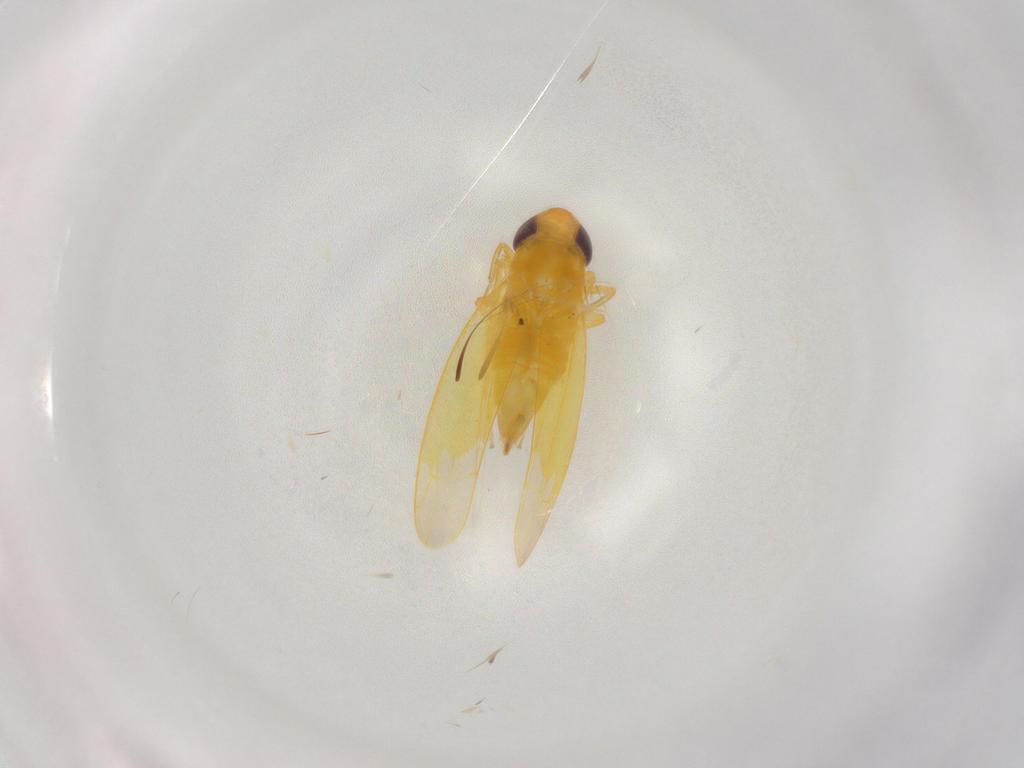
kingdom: Animalia
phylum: Arthropoda
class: Insecta
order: Hemiptera
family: Cicadellidae
